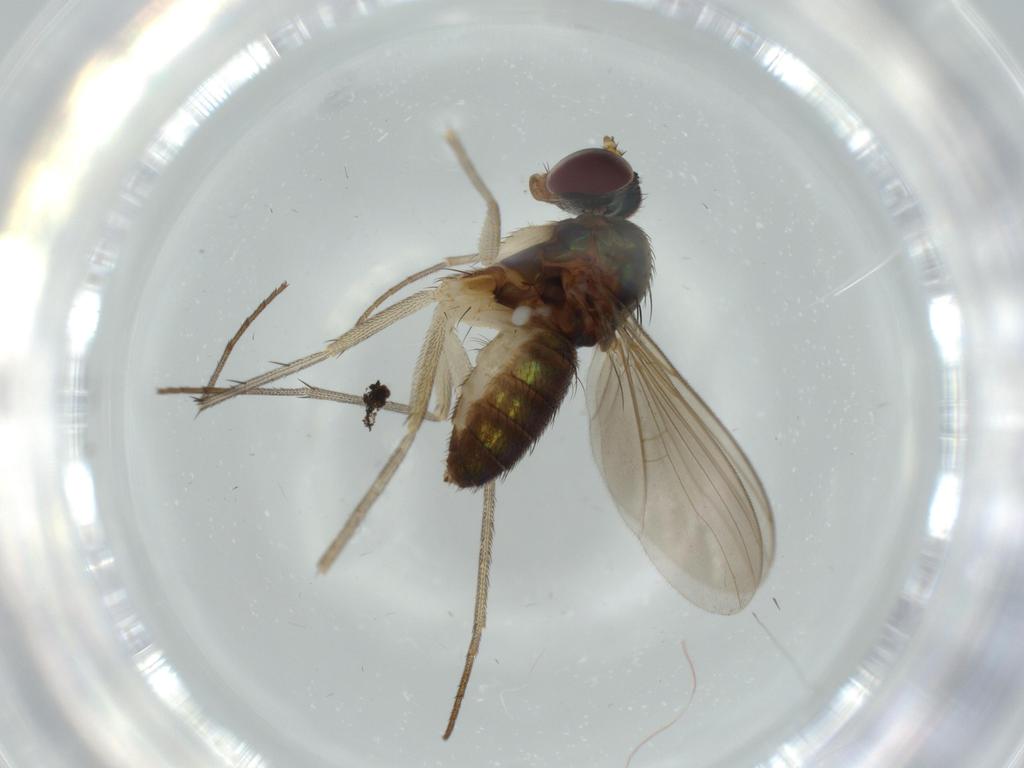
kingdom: Animalia
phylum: Arthropoda
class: Insecta
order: Diptera
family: Dolichopodidae
